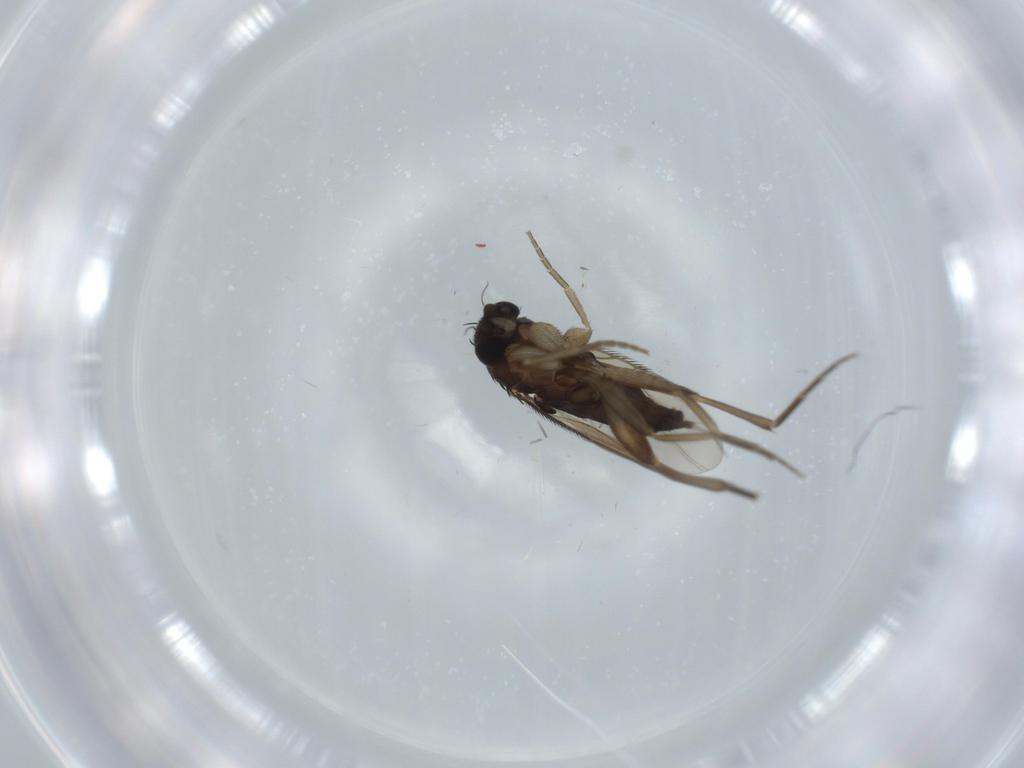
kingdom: Animalia
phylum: Arthropoda
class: Insecta
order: Diptera
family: Phoridae
